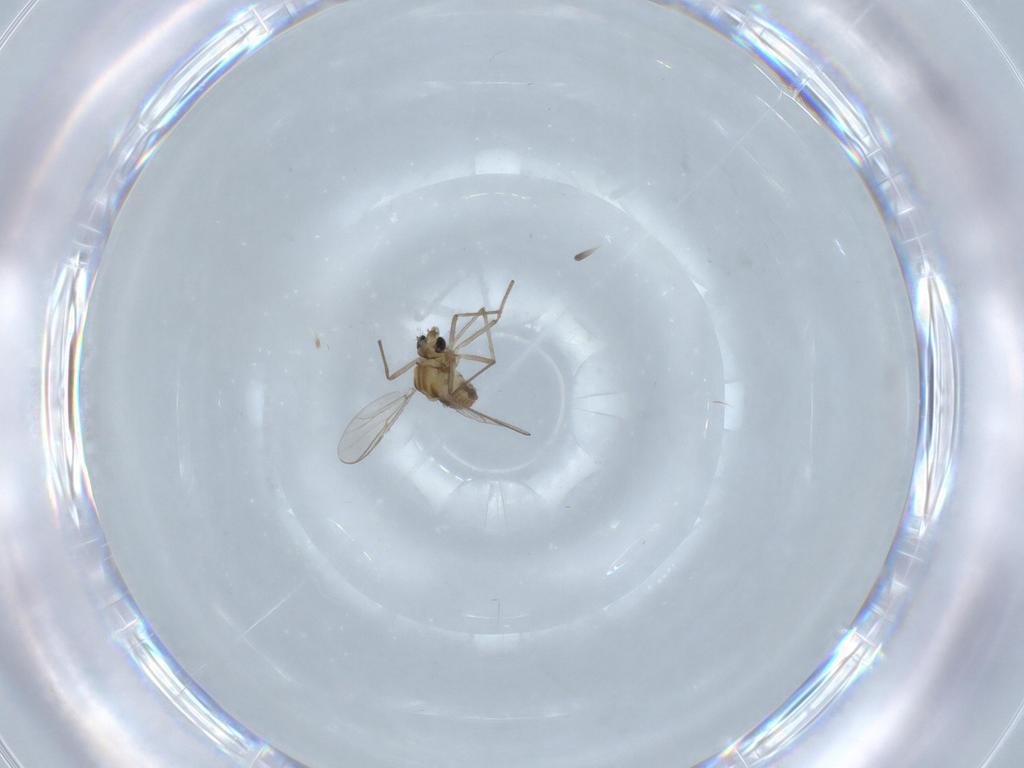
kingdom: Animalia
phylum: Arthropoda
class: Insecta
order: Diptera
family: Chironomidae
